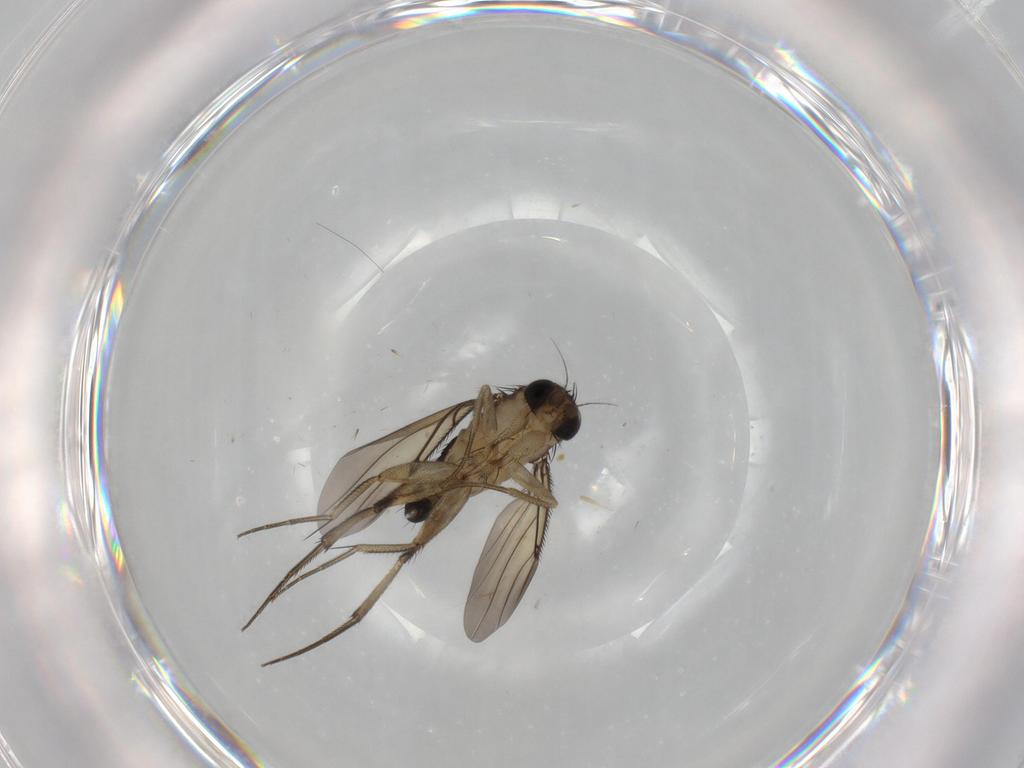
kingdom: Animalia
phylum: Arthropoda
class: Insecta
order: Diptera
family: Phoridae
